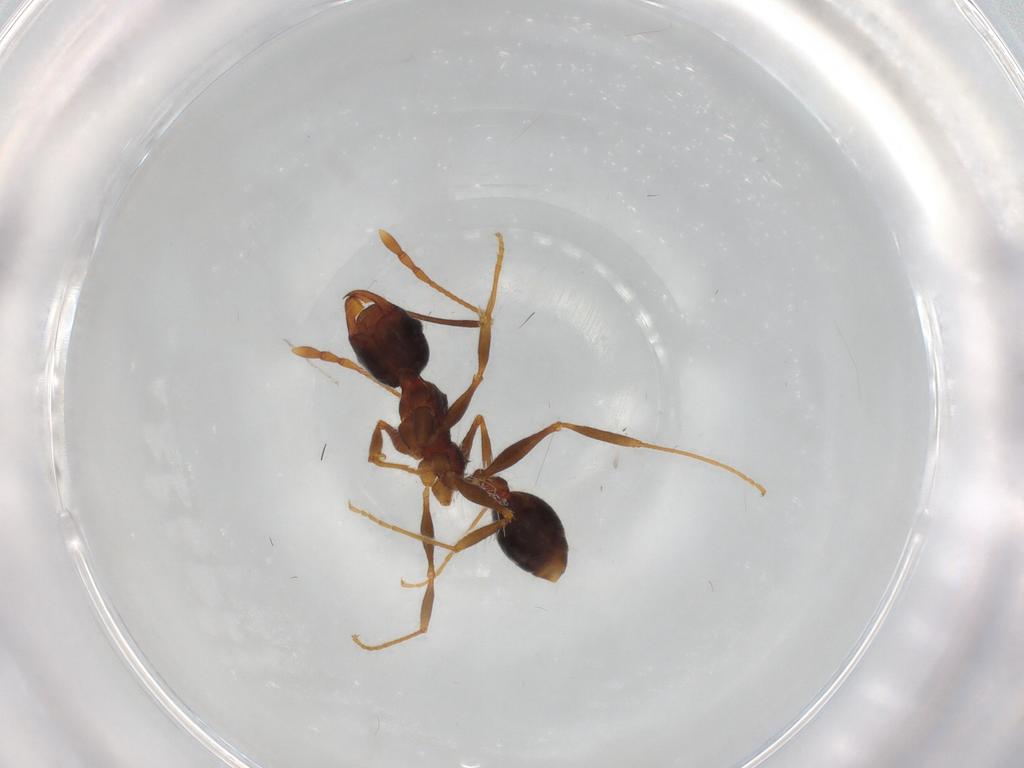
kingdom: Animalia
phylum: Arthropoda
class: Insecta
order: Hymenoptera
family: Formicidae
